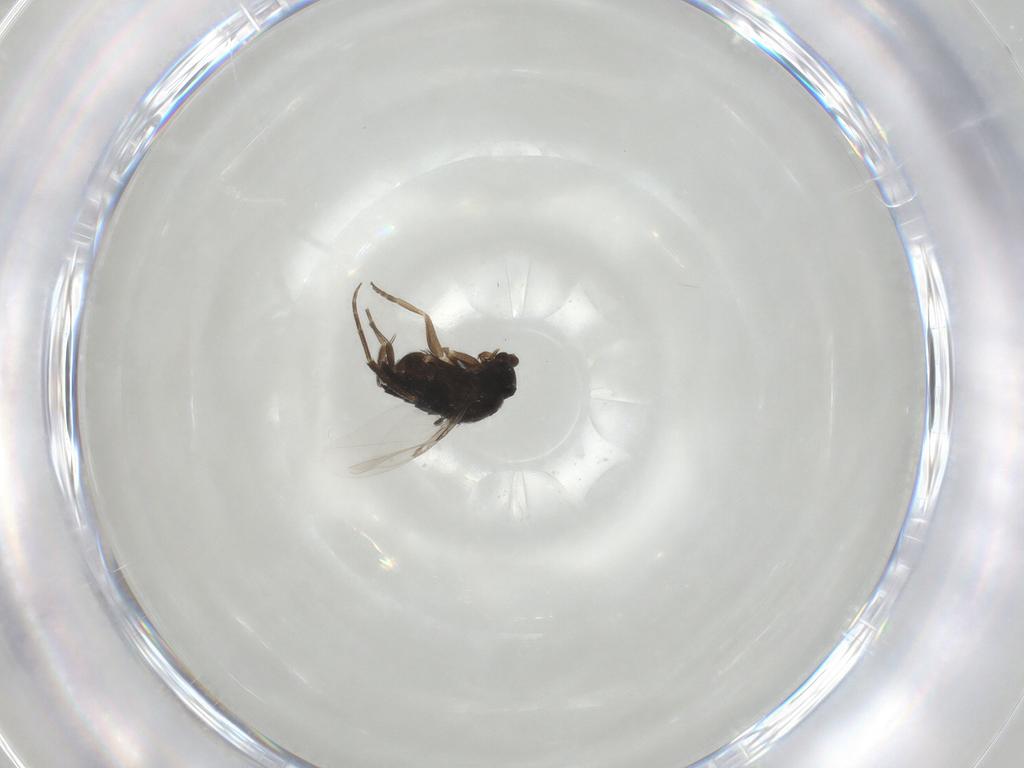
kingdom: Animalia
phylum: Arthropoda
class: Insecta
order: Diptera
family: Phoridae
